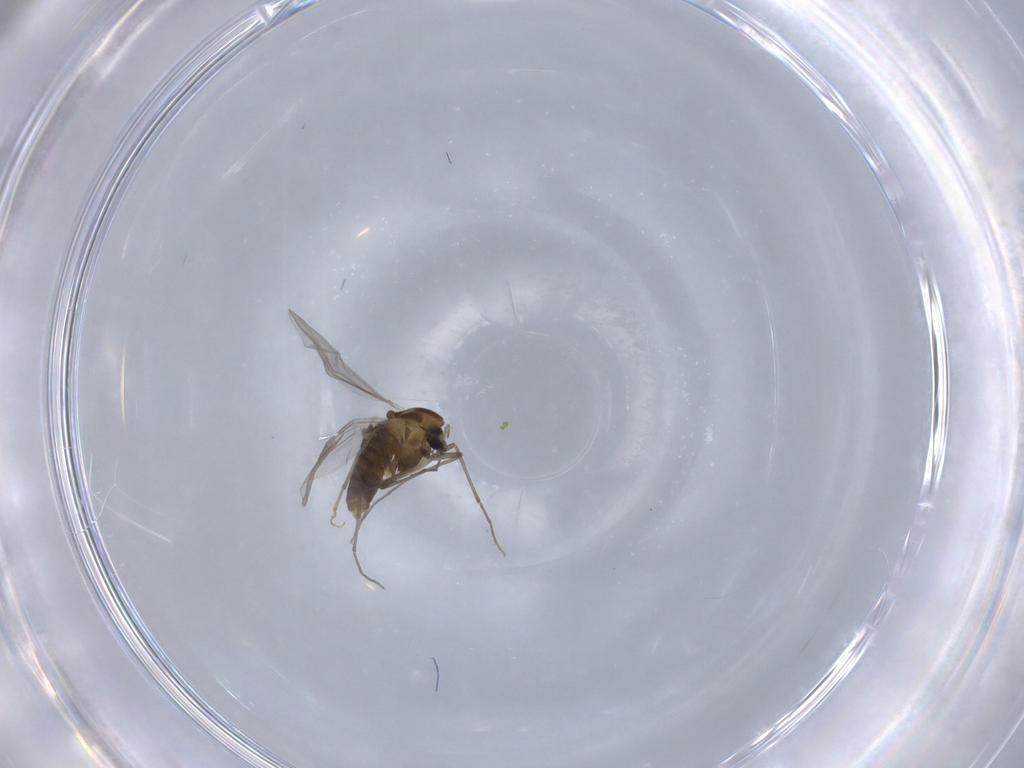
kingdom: Animalia
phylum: Arthropoda
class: Insecta
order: Diptera
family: Chironomidae
